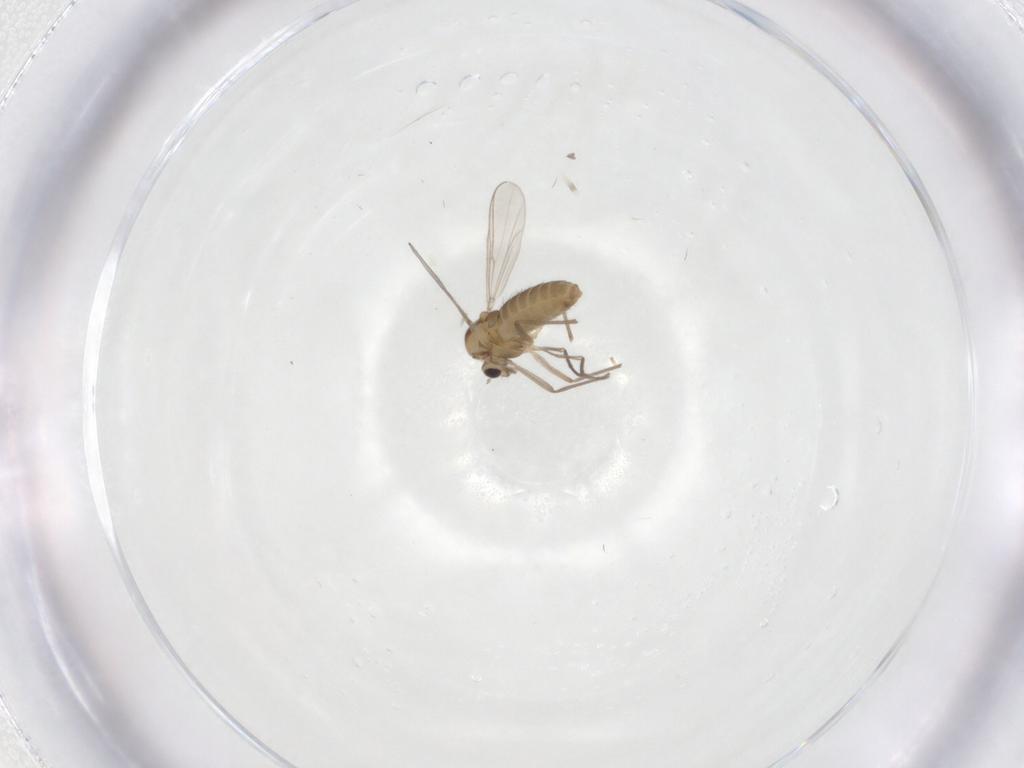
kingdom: Animalia
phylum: Arthropoda
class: Insecta
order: Diptera
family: Chironomidae
